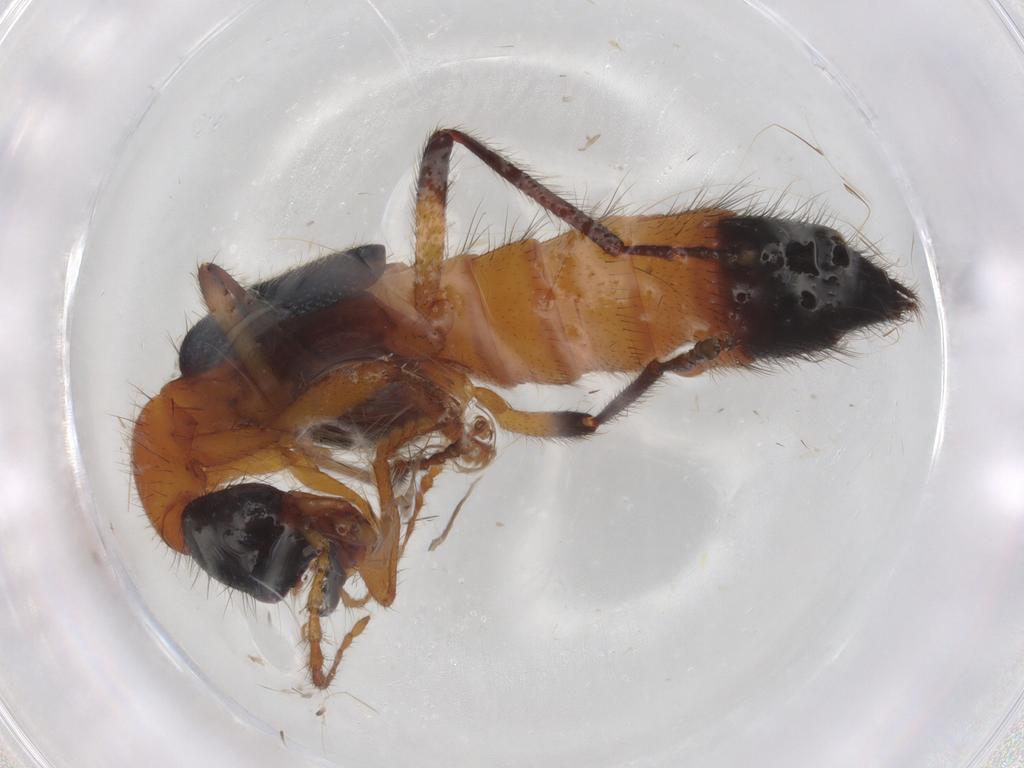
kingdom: Animalia
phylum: Arthropoda
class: Insecta
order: Coleoptera
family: Staphylinidae
